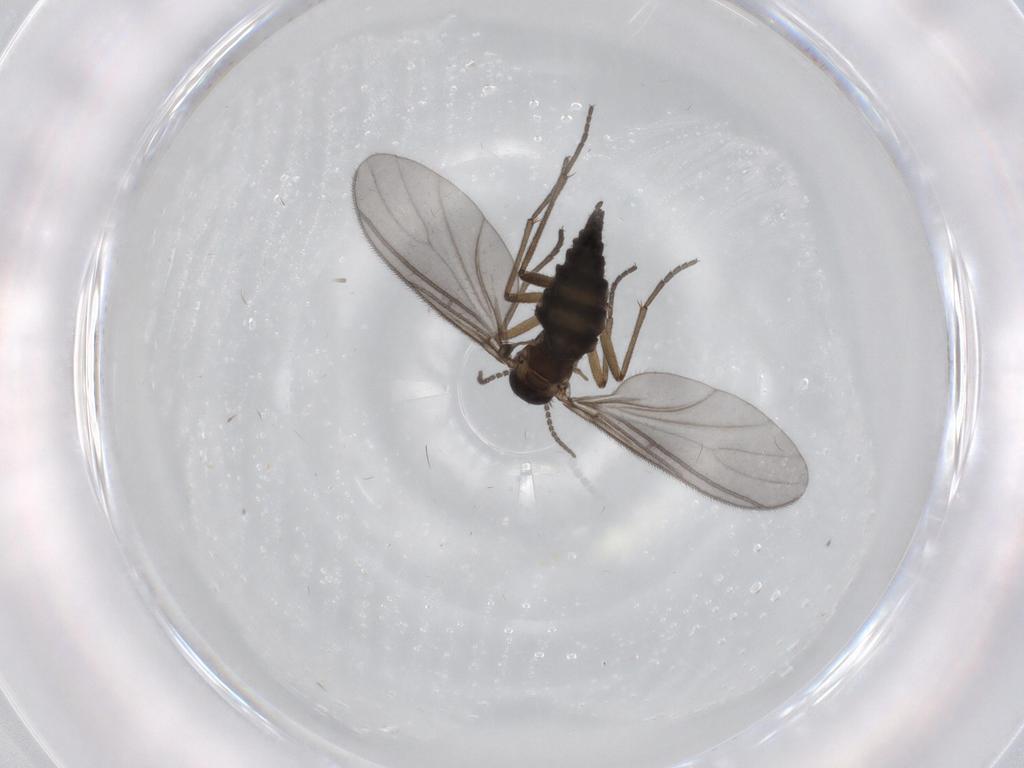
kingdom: Animalia
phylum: Arthropoda
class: Insecta
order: Diptera
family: Sciaridae
